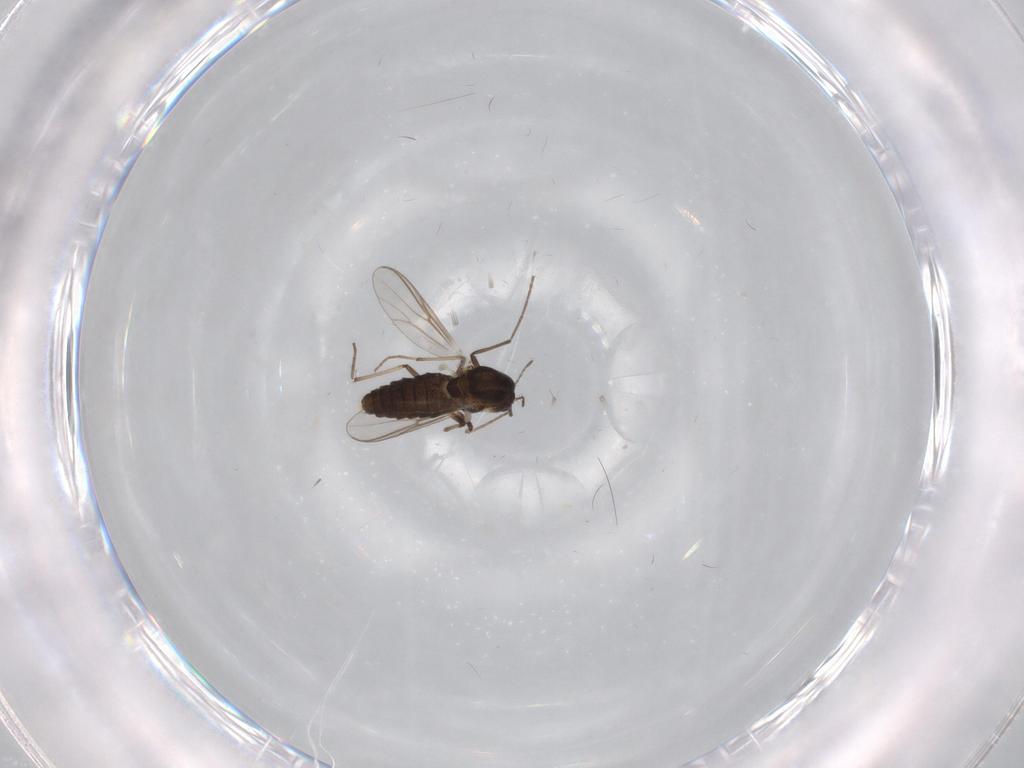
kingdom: Animalia
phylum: Arthropoda
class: Insecta
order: Diptera
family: Chironomidae
